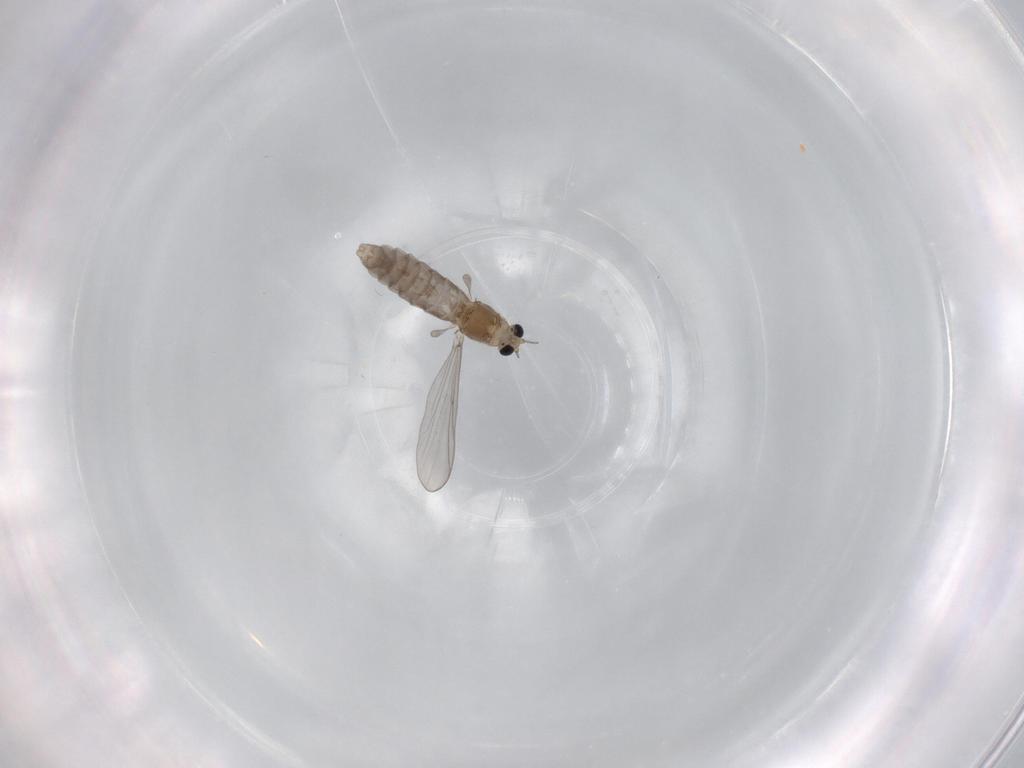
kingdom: Animalia
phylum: Arthropoda
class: Insecta
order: Diptera
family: Chironomidae
